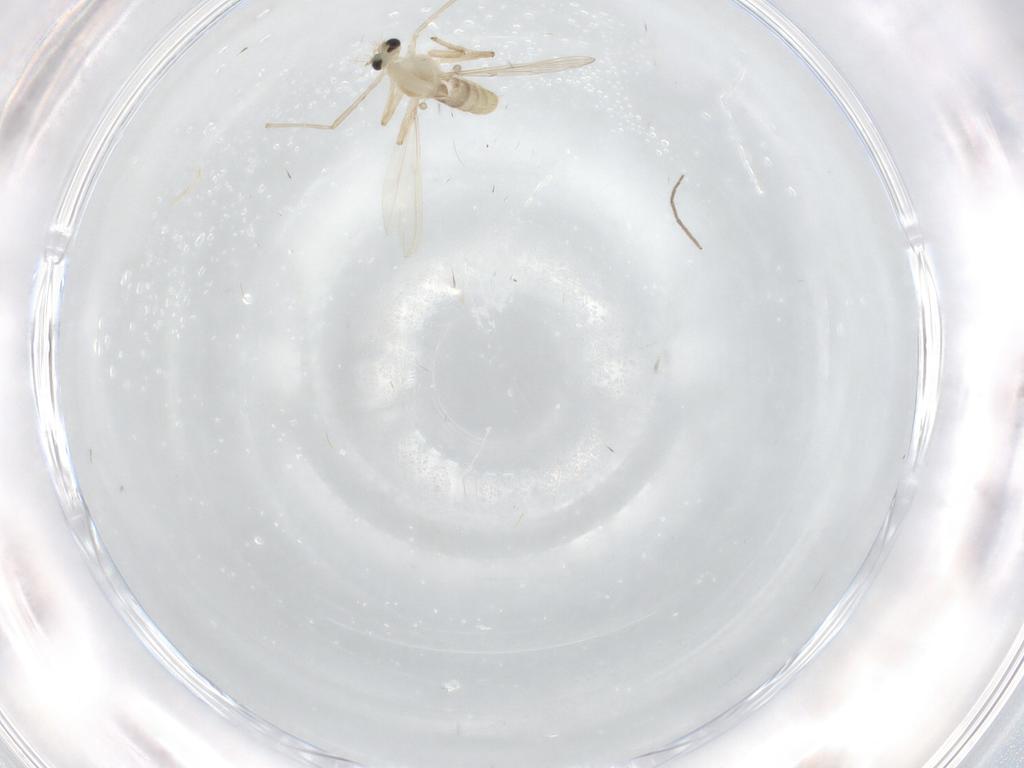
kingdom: Animalia
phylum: Arthropoda
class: Insecta
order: Diptera
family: Chironomidae
